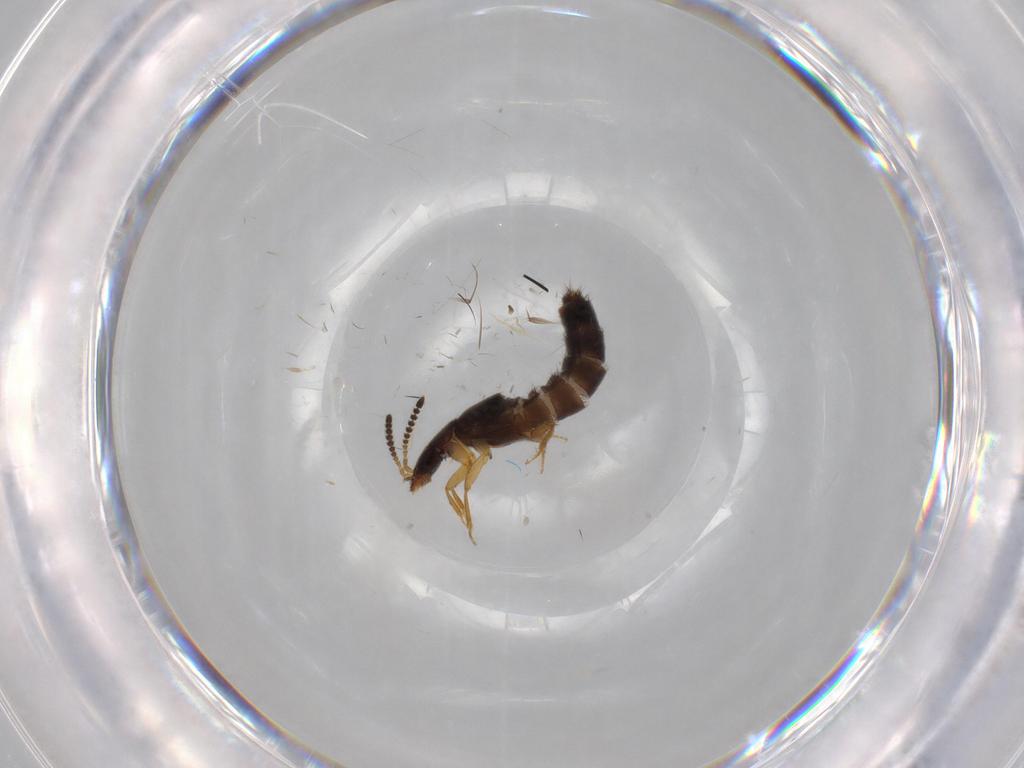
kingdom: Animalia
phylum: Arthropoda
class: Insecta
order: Coleoptera
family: Staphylinidae
